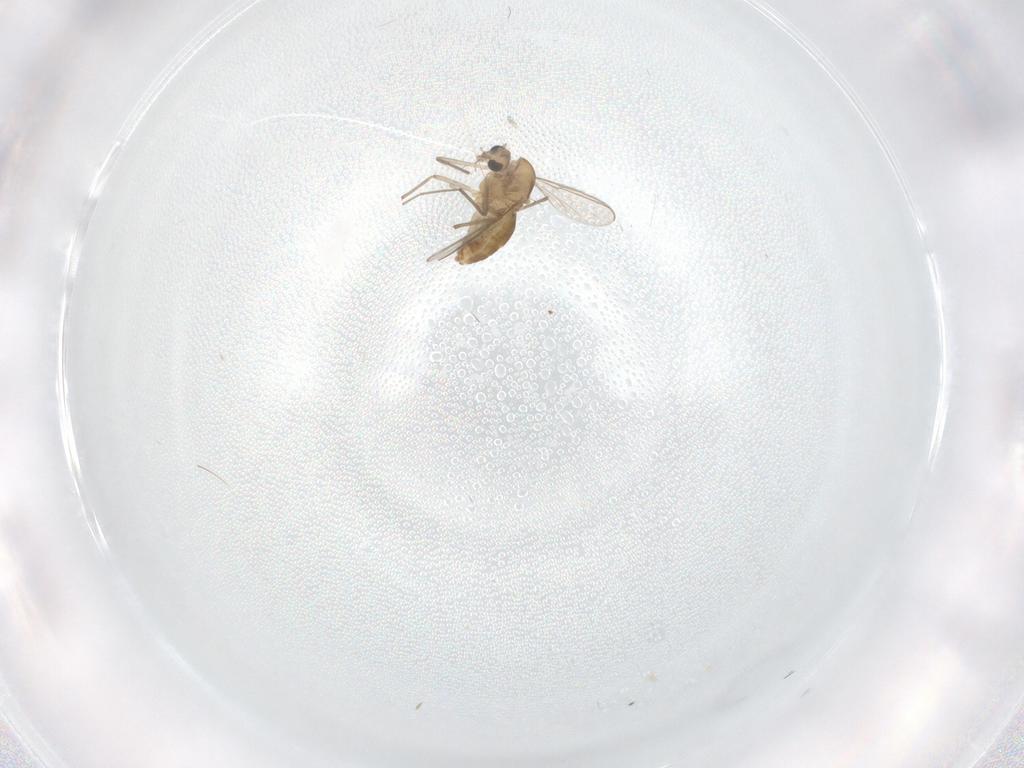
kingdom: Animalia
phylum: Arthropoda
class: Insecta
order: Diptera
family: Chironomidae
